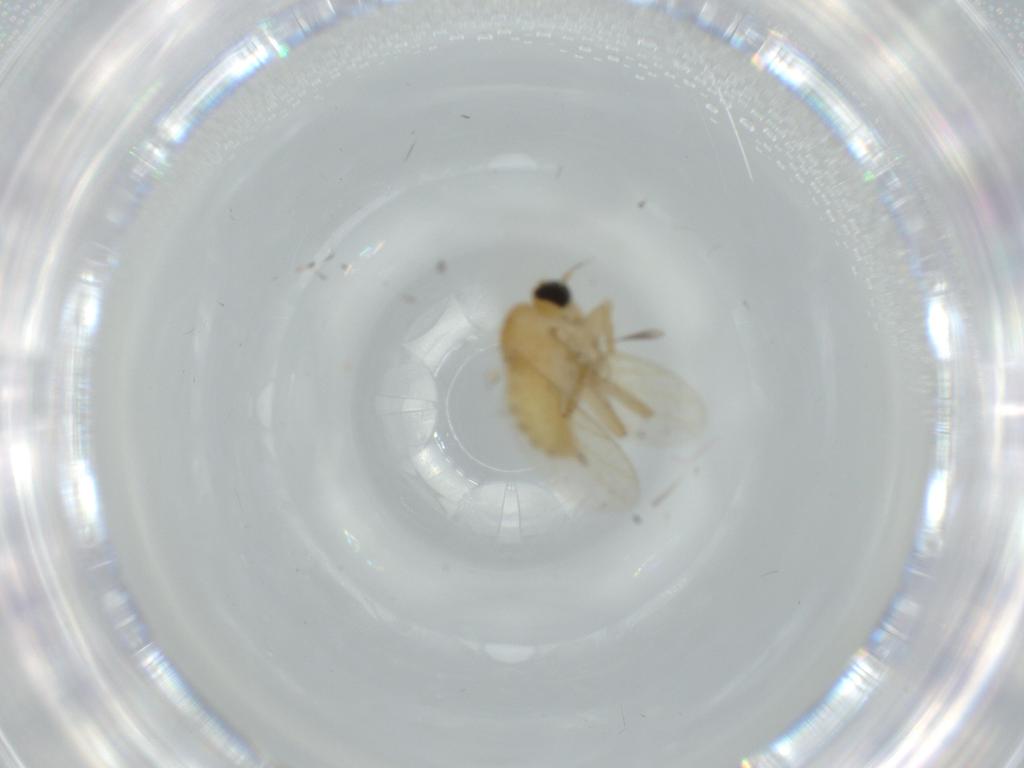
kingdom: Animalia
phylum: Arthropoda
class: Insecta
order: Diptera
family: Hybotidae
